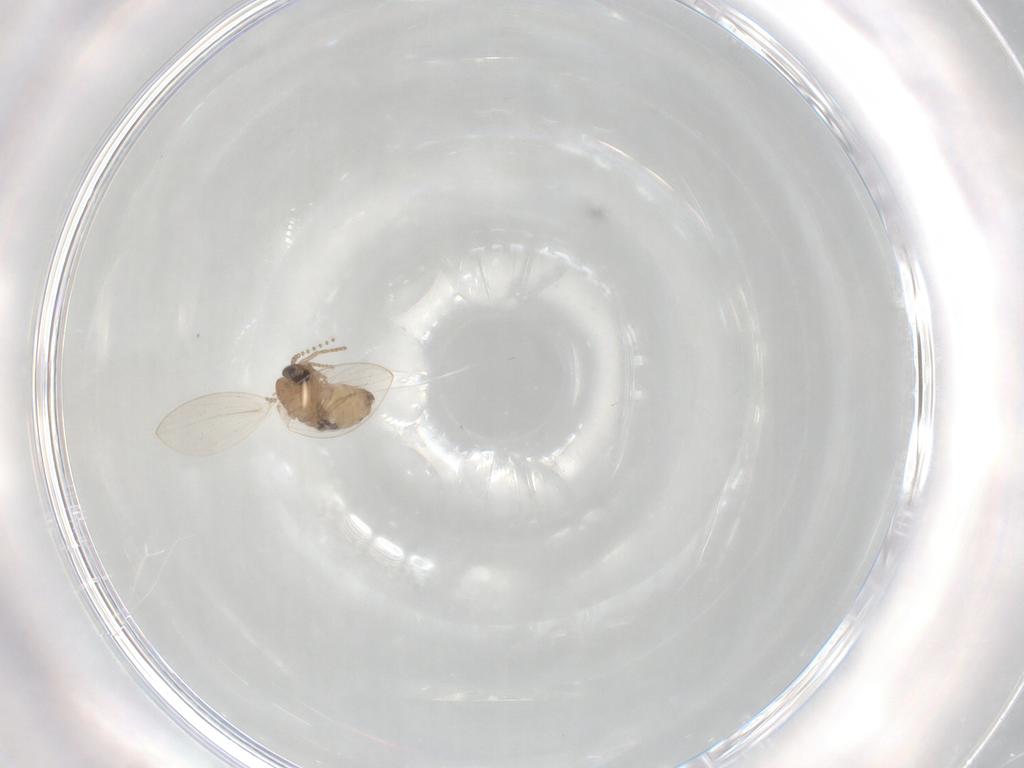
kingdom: Animalia
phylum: Arthropoda
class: Insecta
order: Diptera
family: Psychodidae
